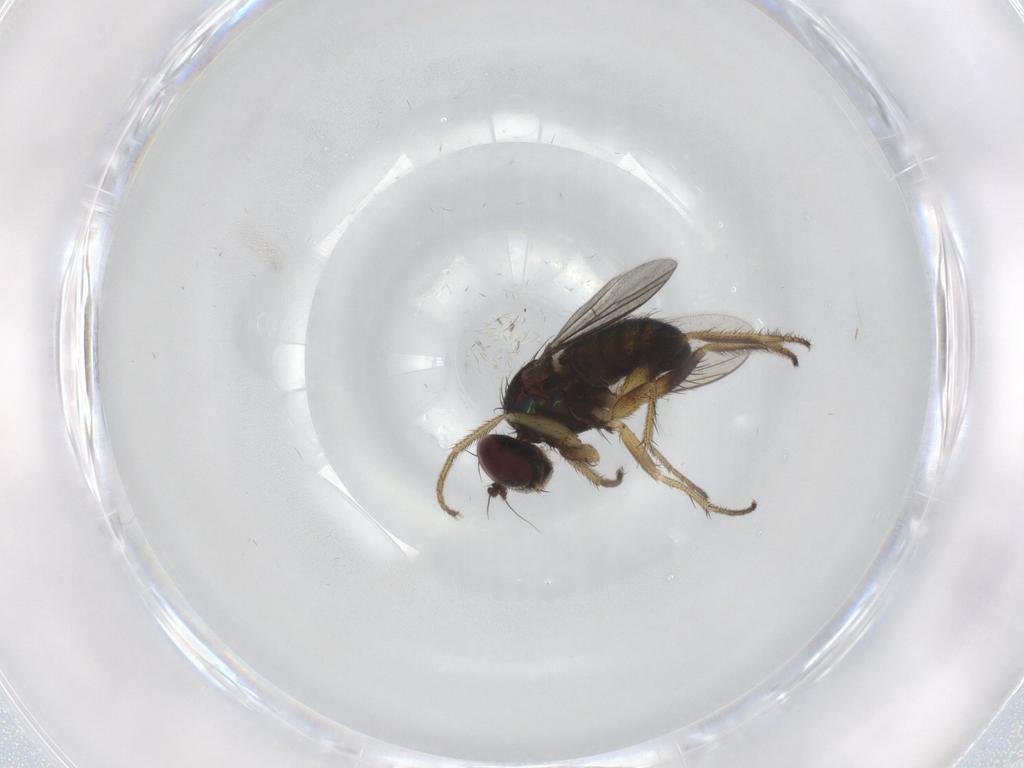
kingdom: Animalia
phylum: Arthropoda
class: Insecta
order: Diptera
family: Dolichopodidae
